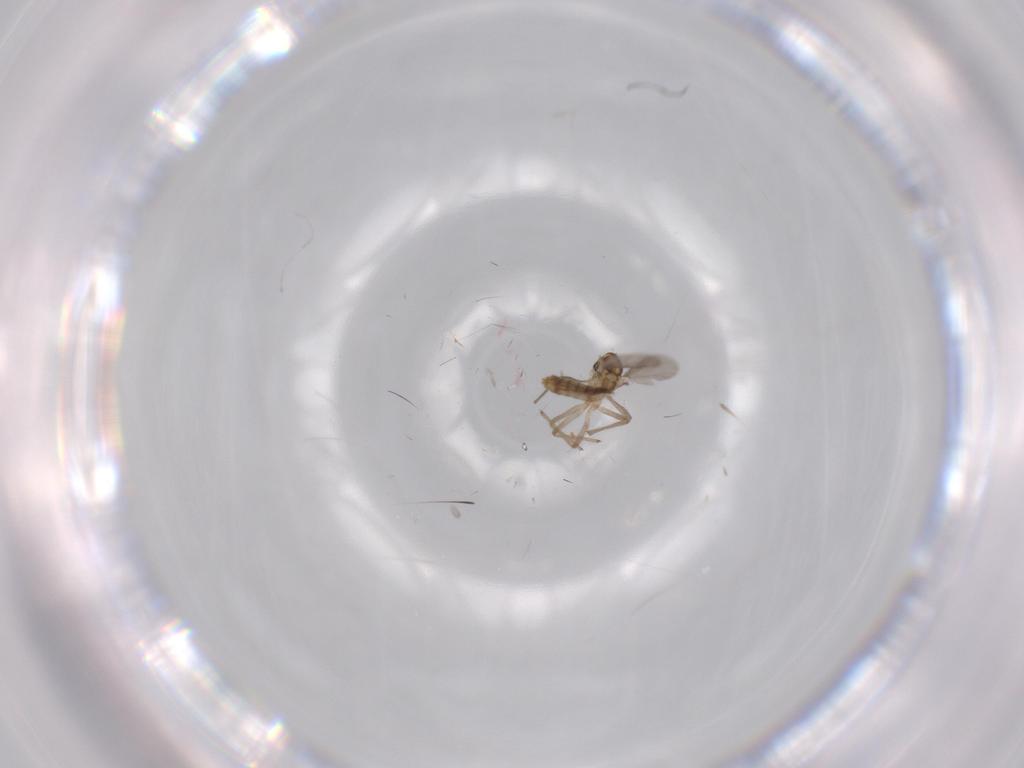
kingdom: Animalia
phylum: Arthropoda
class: Insecta
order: Diptera
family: Chironomidae
